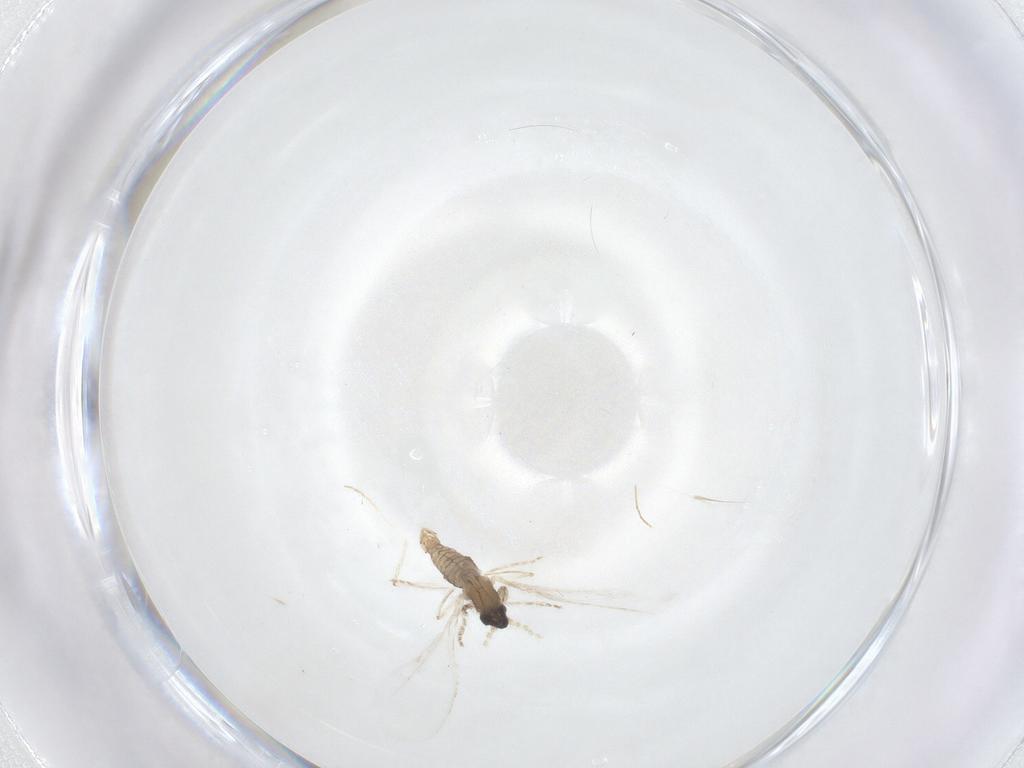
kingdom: Animalia
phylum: Arthropoda
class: Insecta
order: Diptera
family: Cecidomyiidae
